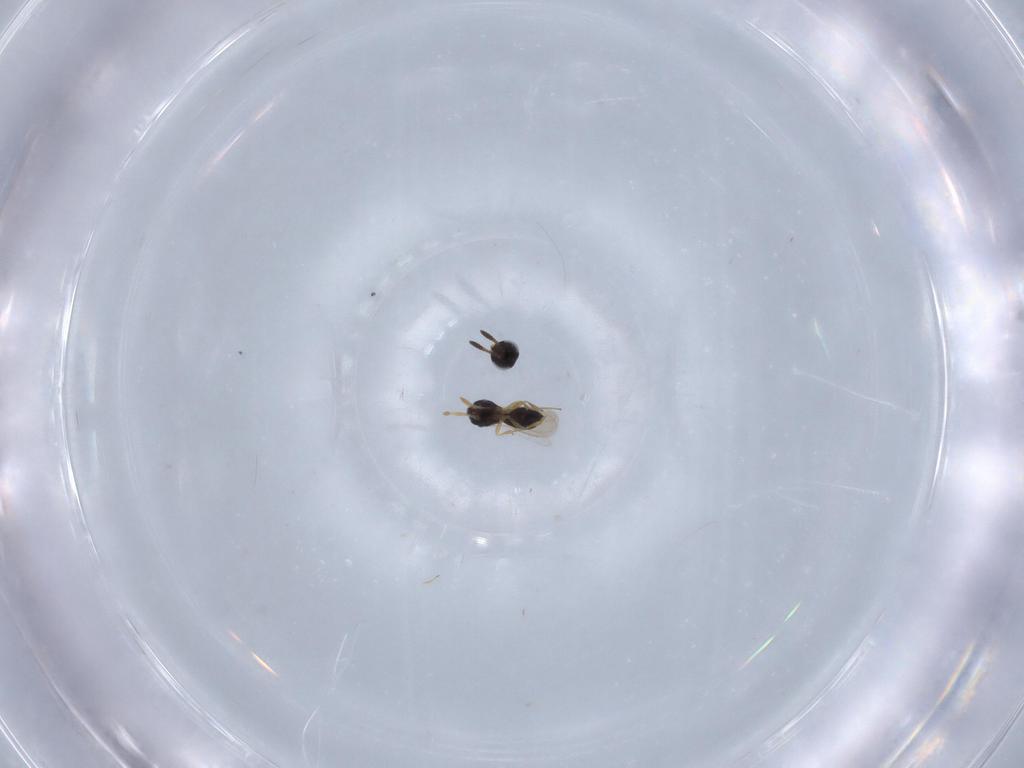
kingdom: Animalia
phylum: Arthropoda
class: Insecta
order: Hymenoptera
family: Scelionidae
